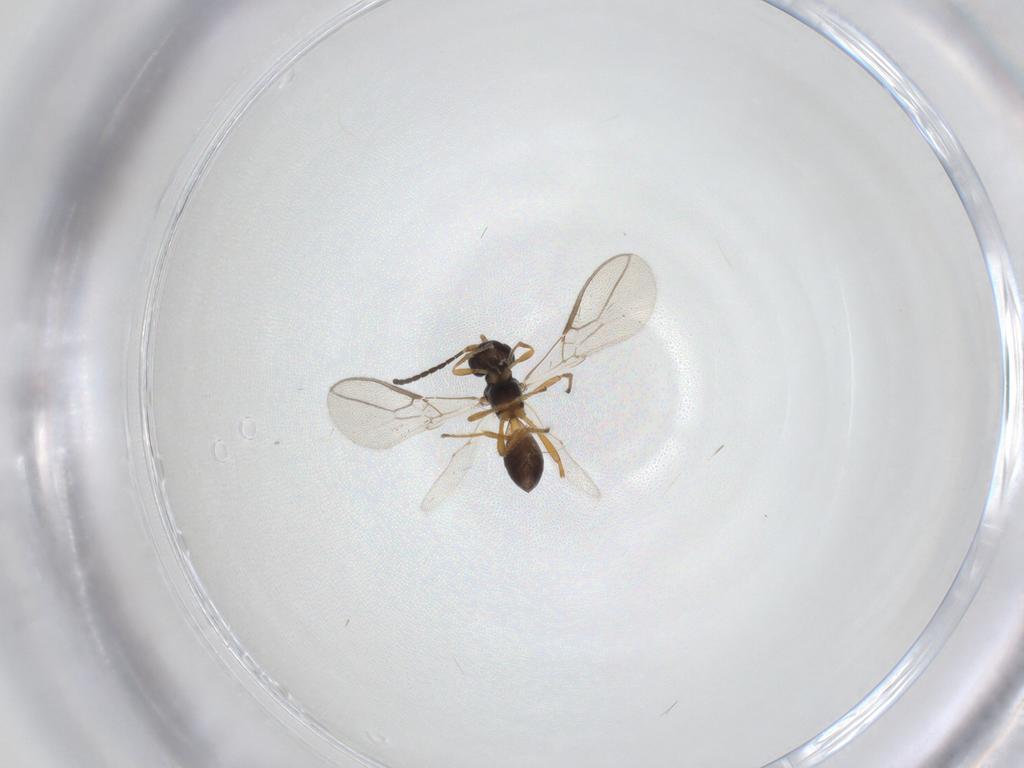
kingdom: Animalia
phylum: Arthropoda
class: Insecta
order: Hymenoptera
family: Braconidae
